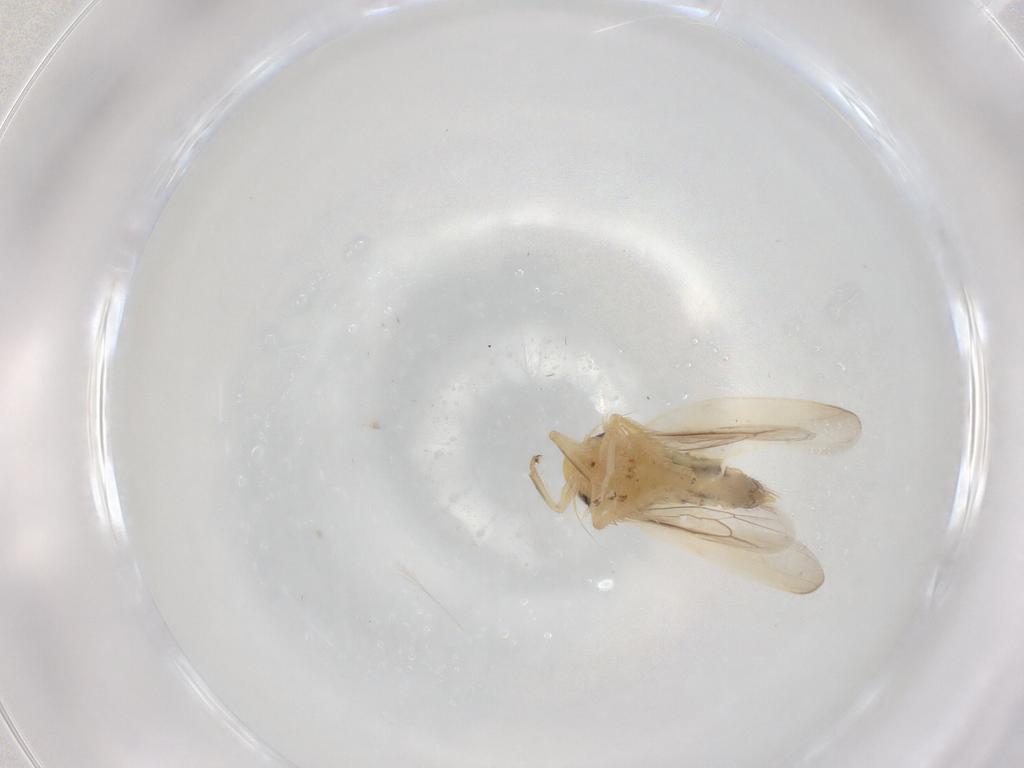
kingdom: Animalia
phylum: Arthropoda
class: Insecta
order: Hemiptera
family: Cicadellidae
